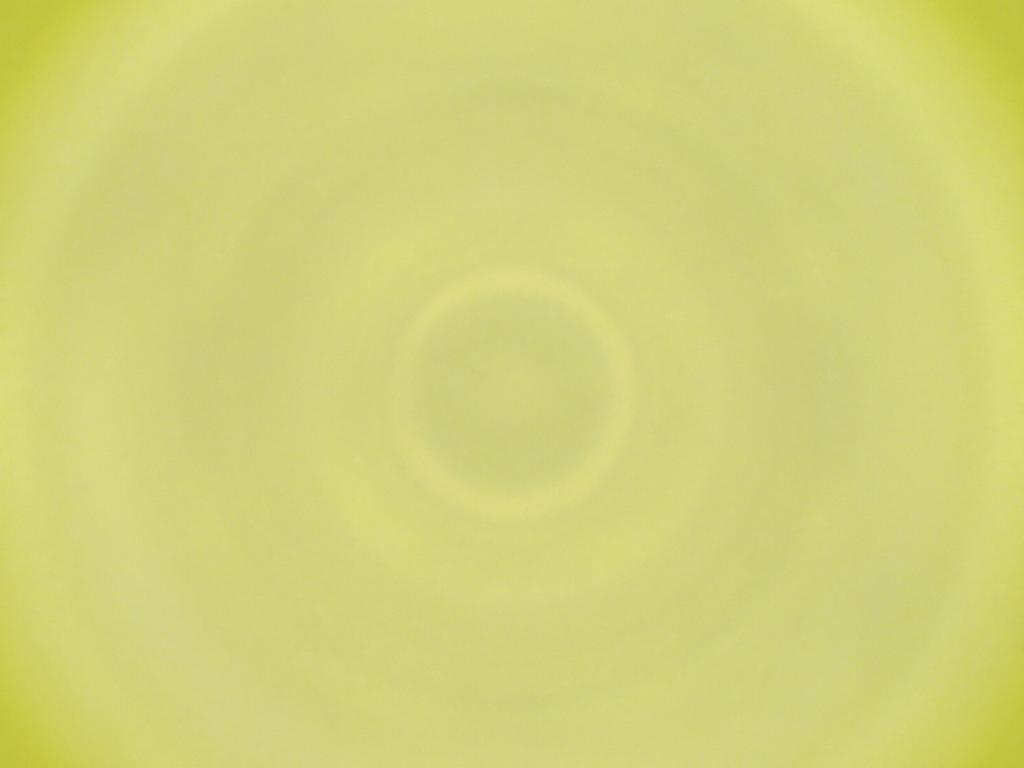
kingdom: Animalia
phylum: Arthropoda
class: Insecta
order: Diptera
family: Cecidomyiidae
